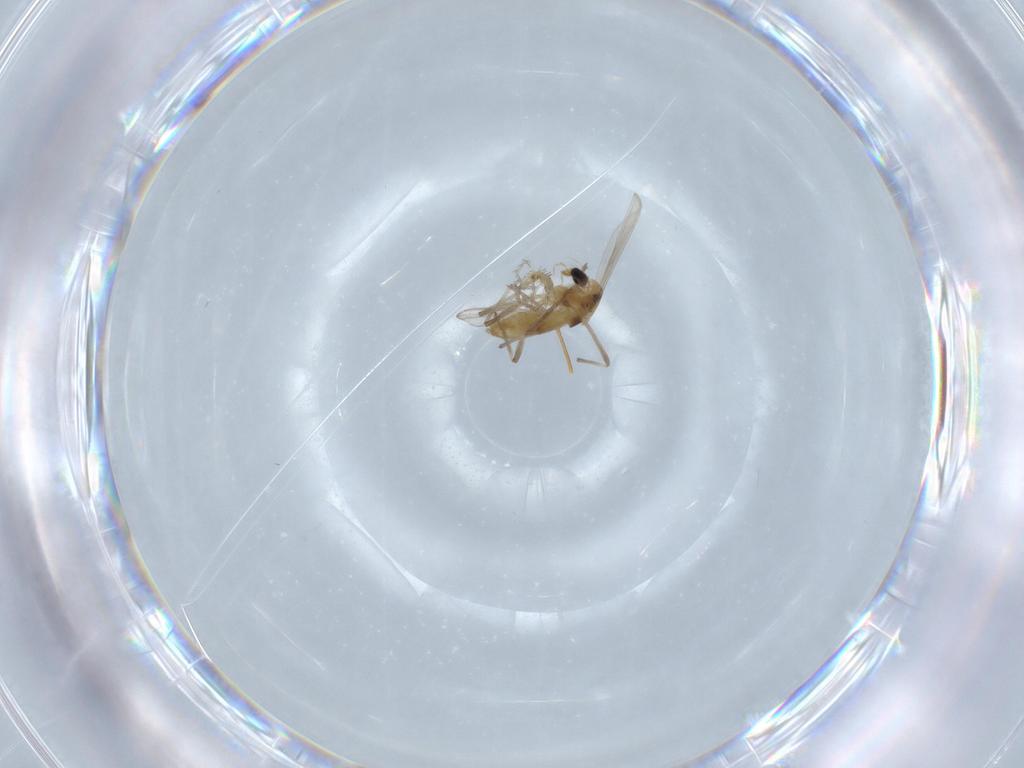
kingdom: Animalia
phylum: Arthropoda
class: Insecta
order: Diptera
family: Chironomidae
